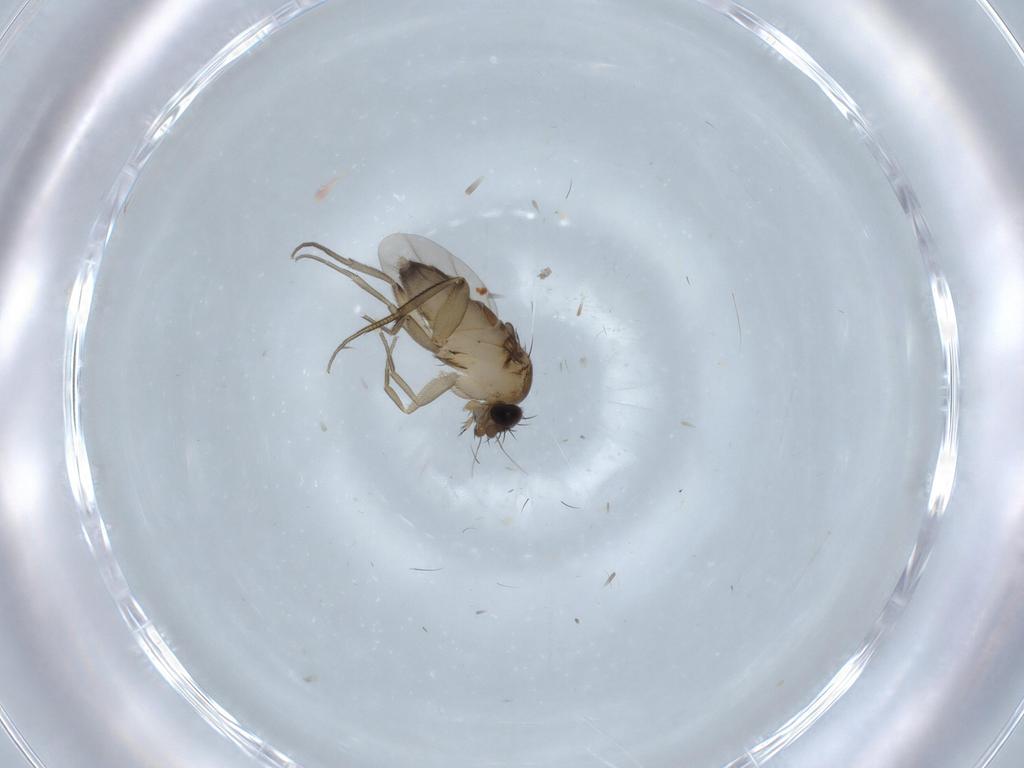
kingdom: Animalia
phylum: Arthropoda
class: Insecta
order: Diptera
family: Phoridae
